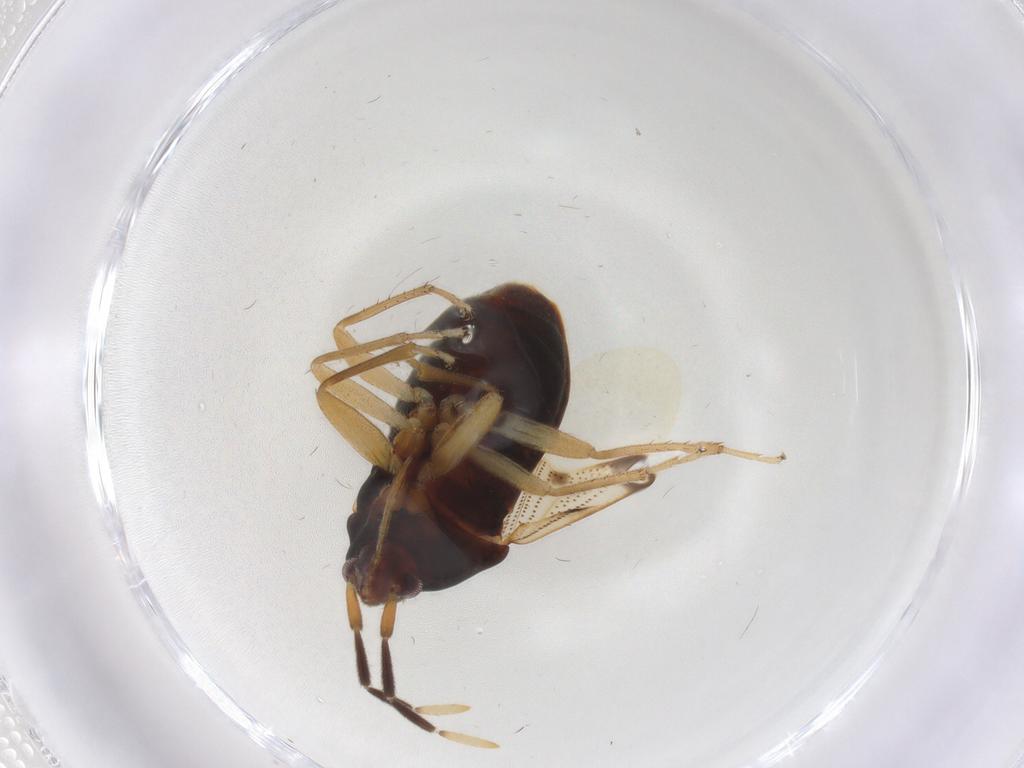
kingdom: Animalia
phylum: Arthropoda
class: Insecta
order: Hemiptera
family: Rhyparochromidae
